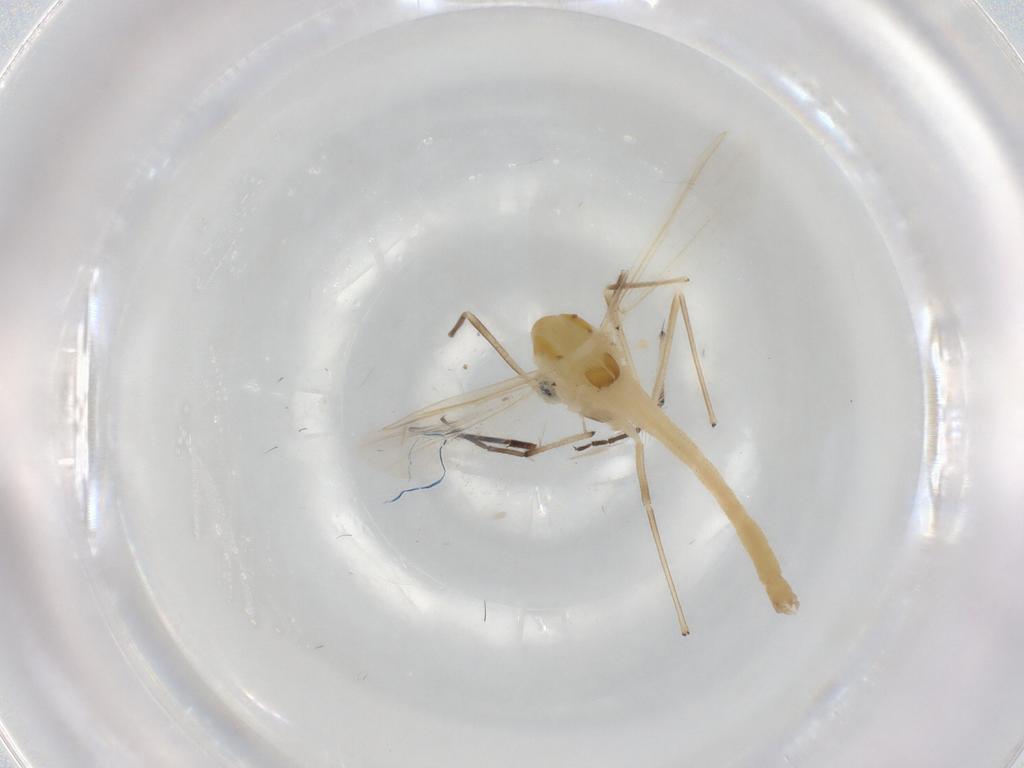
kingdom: Animalia
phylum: Arthropoda
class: Insecta
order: Diptera
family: Chironomidae
